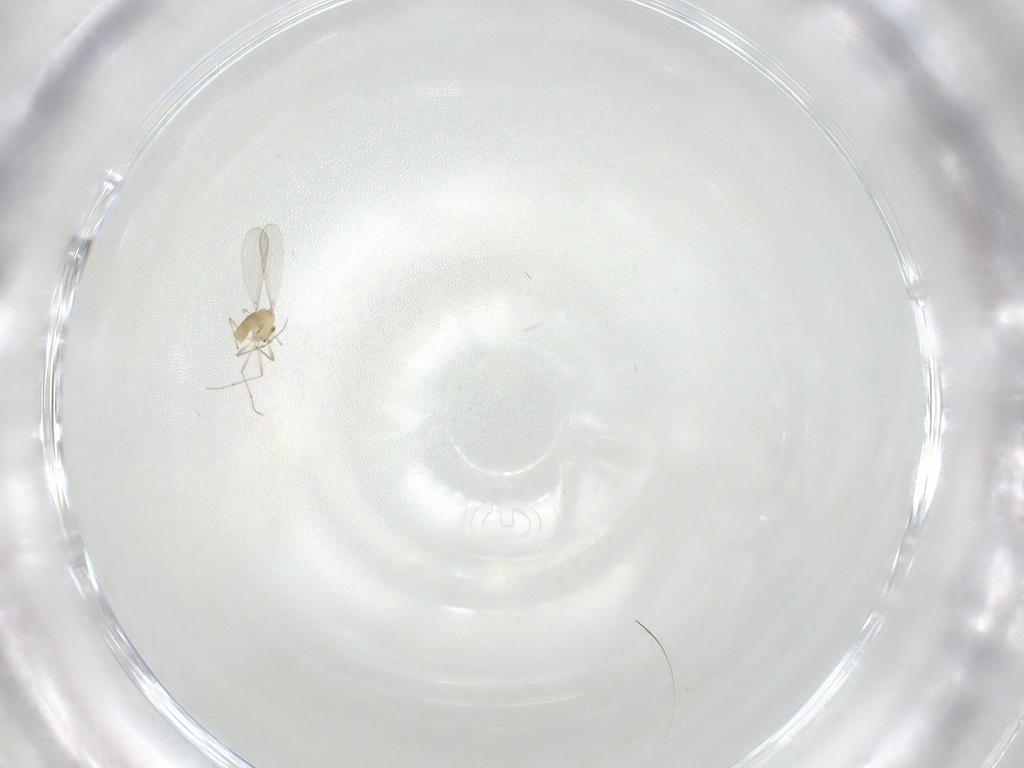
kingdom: Animalia
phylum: Arthropoda
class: Insecta
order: Diptera
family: Chironomidae
